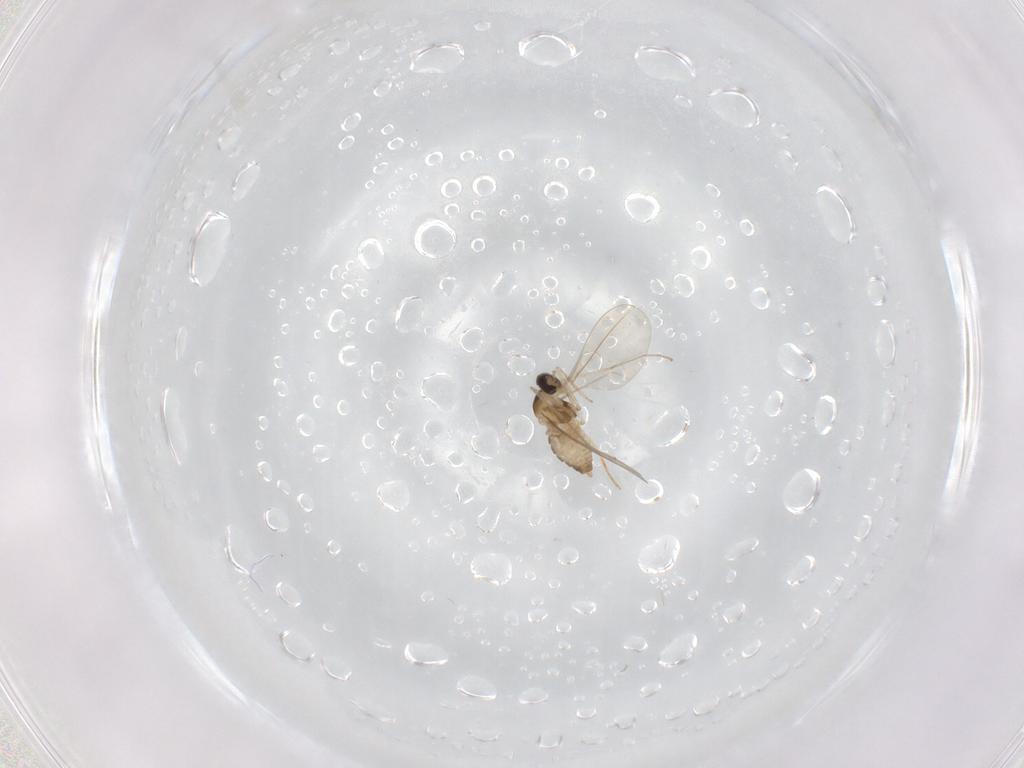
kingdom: Animalia
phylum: Arthropoda
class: Insecta
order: Diptera
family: Cecidomyiidae
